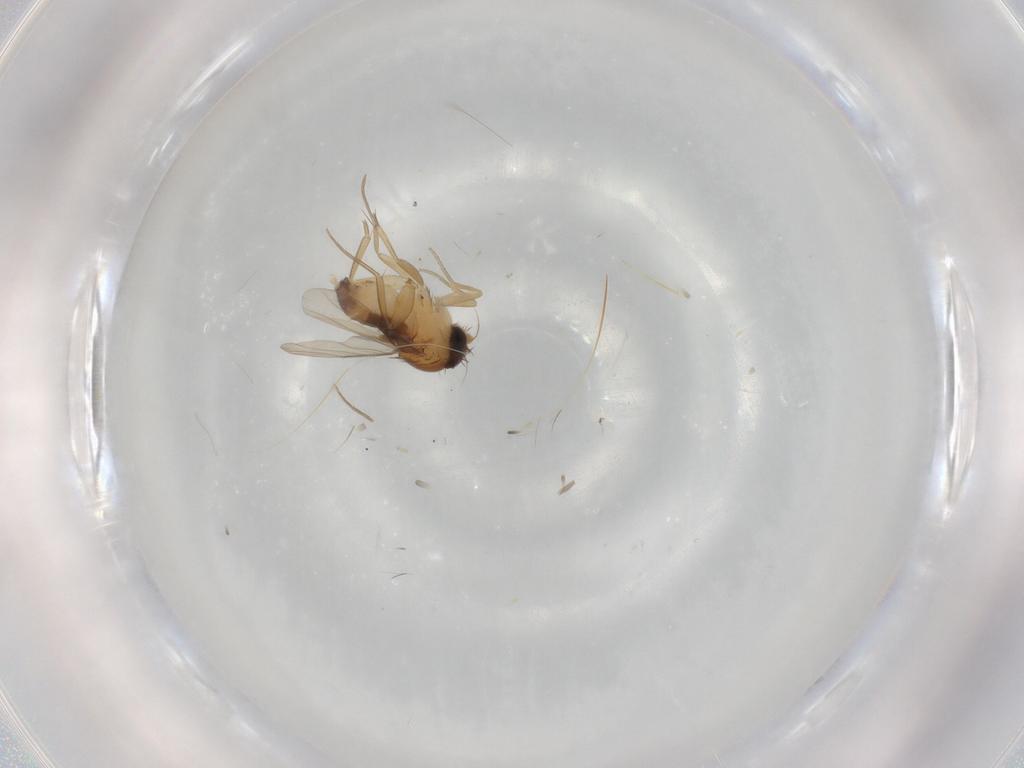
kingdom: Animalia
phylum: Arthropoda
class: Insecta
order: Diptera
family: Phoridae
